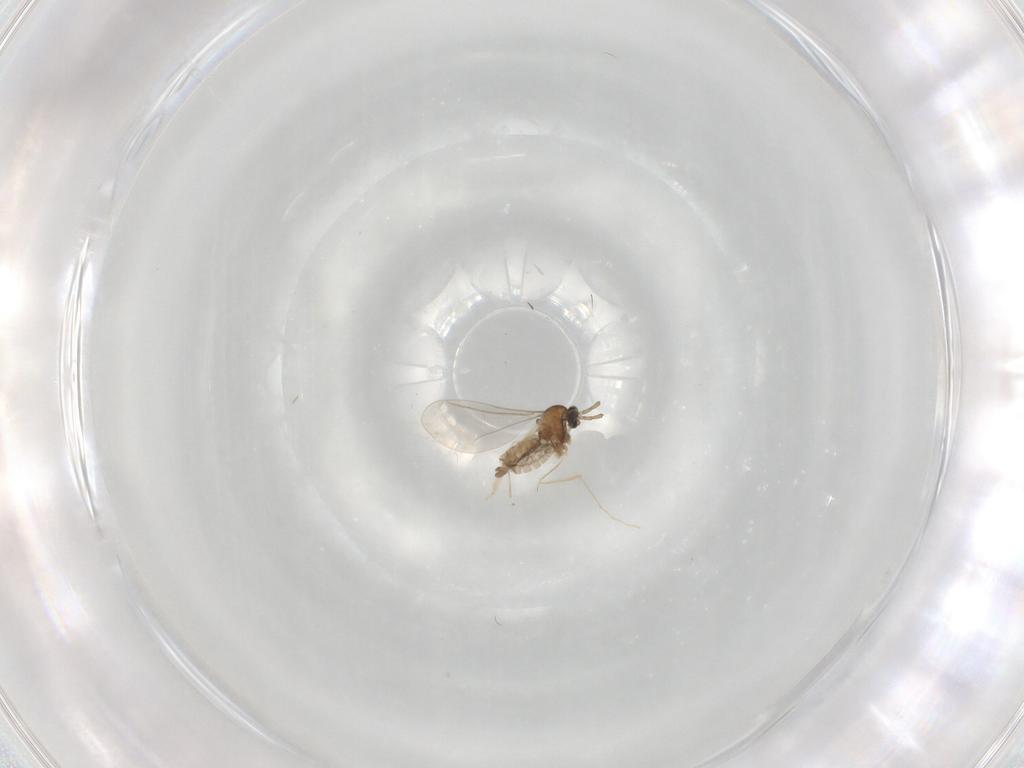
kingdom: Animalia
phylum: Arthropoda
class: Insecta
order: Diptera
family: Cecidomyiidae
